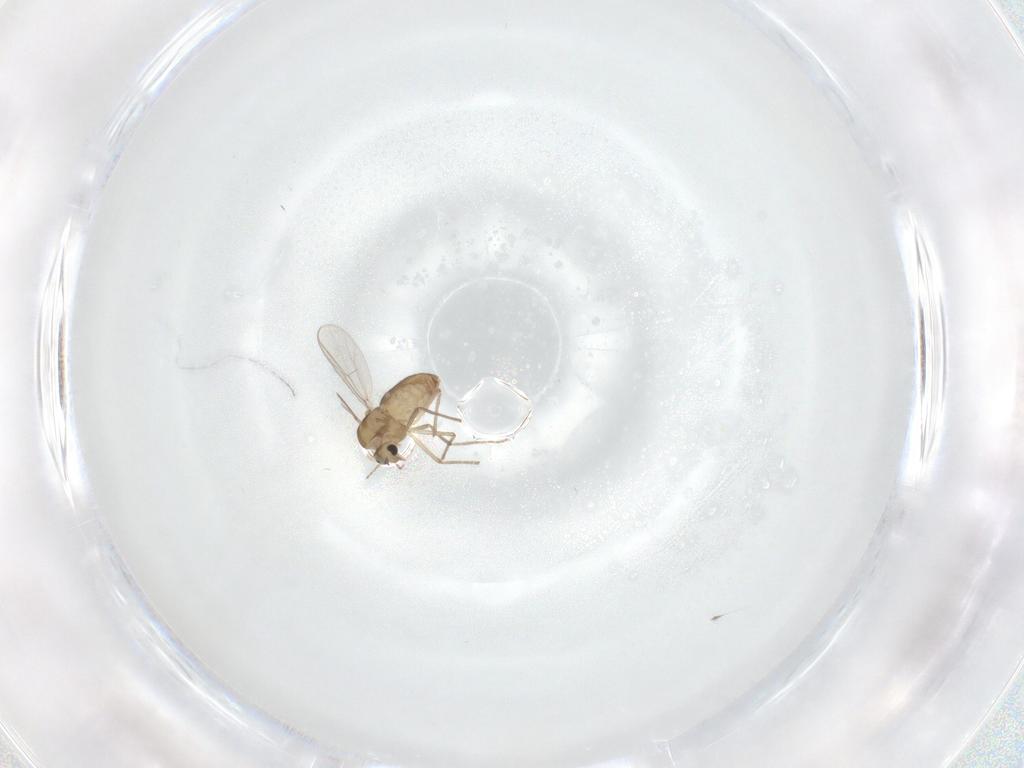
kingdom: Animalia
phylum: Arthropoda
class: Insecta
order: Diptera
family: Chironomidae
